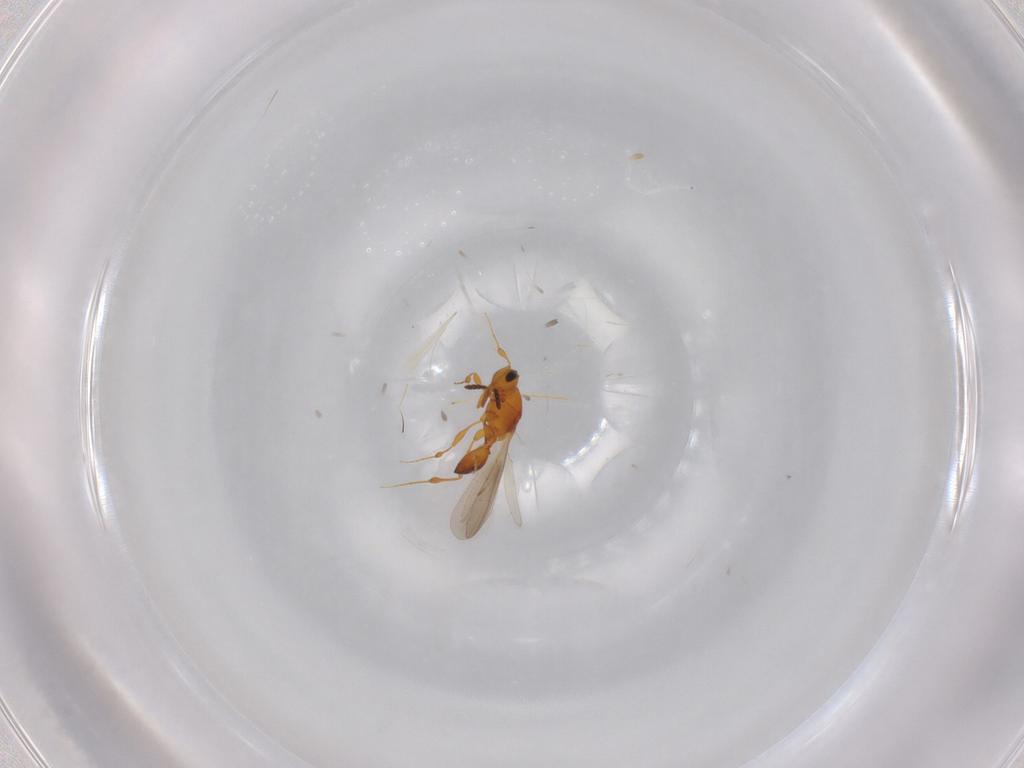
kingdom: Animalia
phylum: Arthropoda
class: Insecta
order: Hymenoptera
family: Platygastridae
